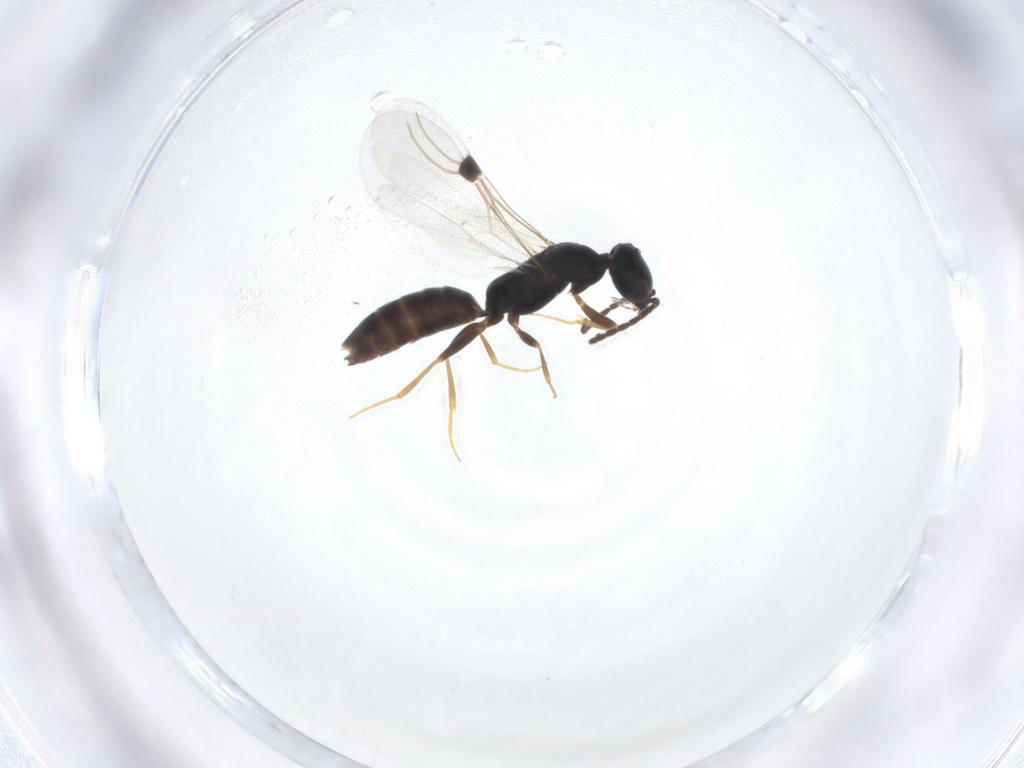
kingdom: Animalia
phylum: Arthropoda
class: Insecta
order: Hymenoptera
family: Bethylidae
